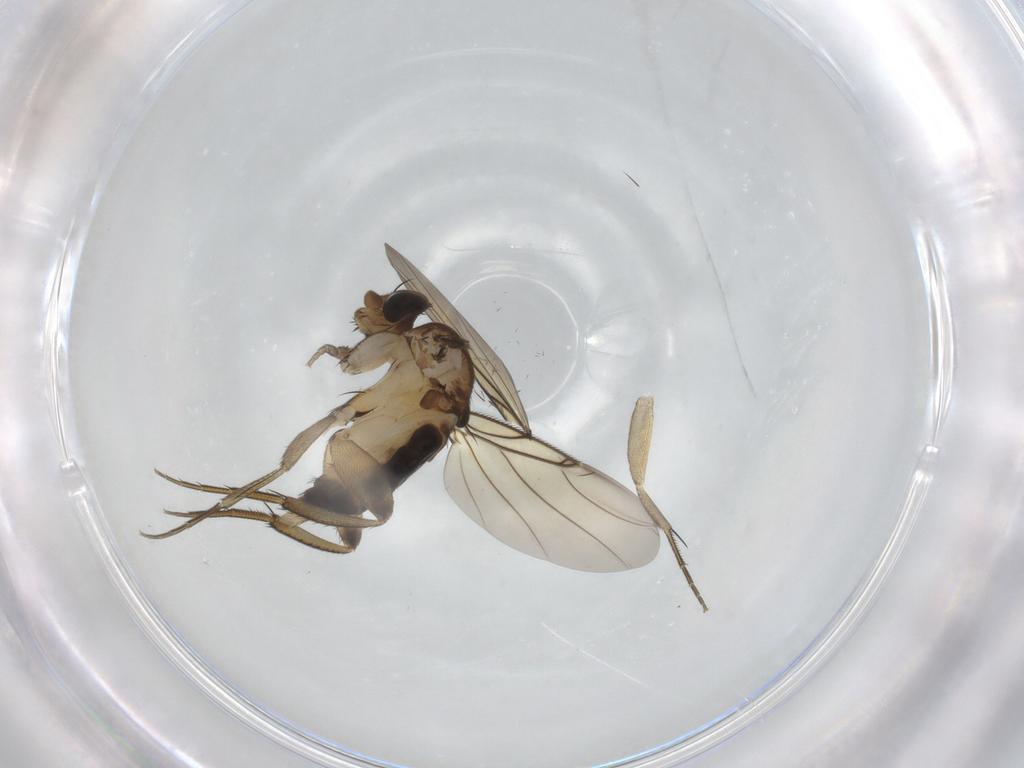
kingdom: Animalia
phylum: Arthropoda
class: Insecta
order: Diptera
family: Phoridae
